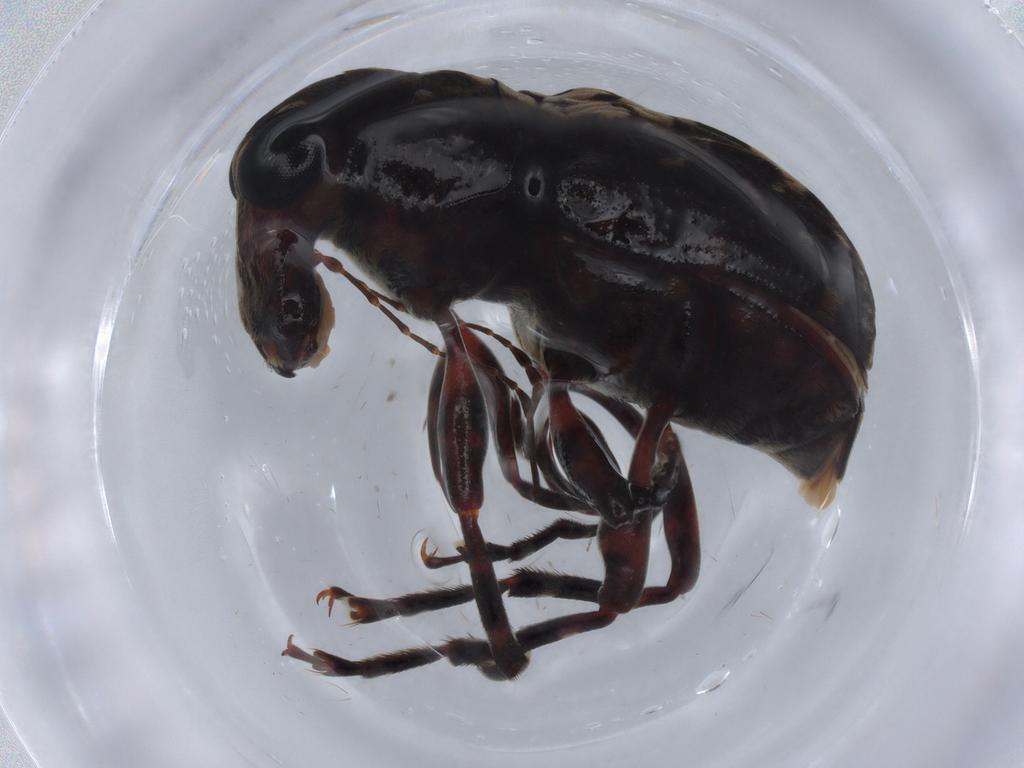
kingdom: Animalia
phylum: Arthropoda
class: Insecta
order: Coleoptera
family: Anthribidae
